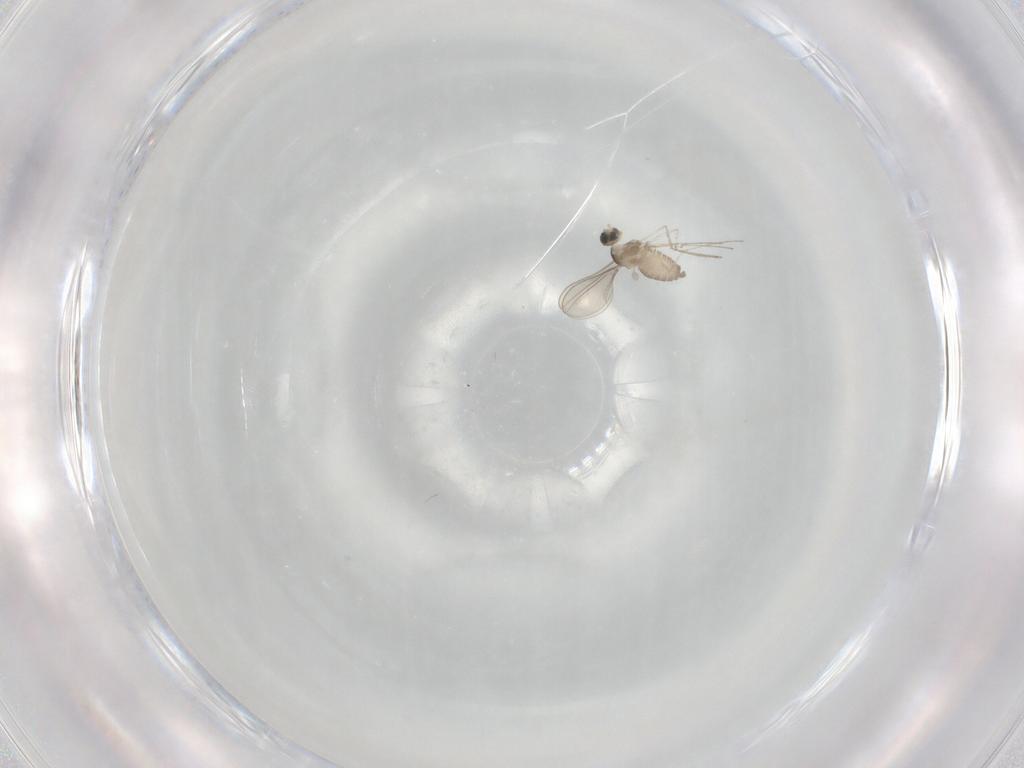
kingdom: Animalia
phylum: Arthropoda
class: Insecta
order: Diptera
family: Cecidomyiidae
